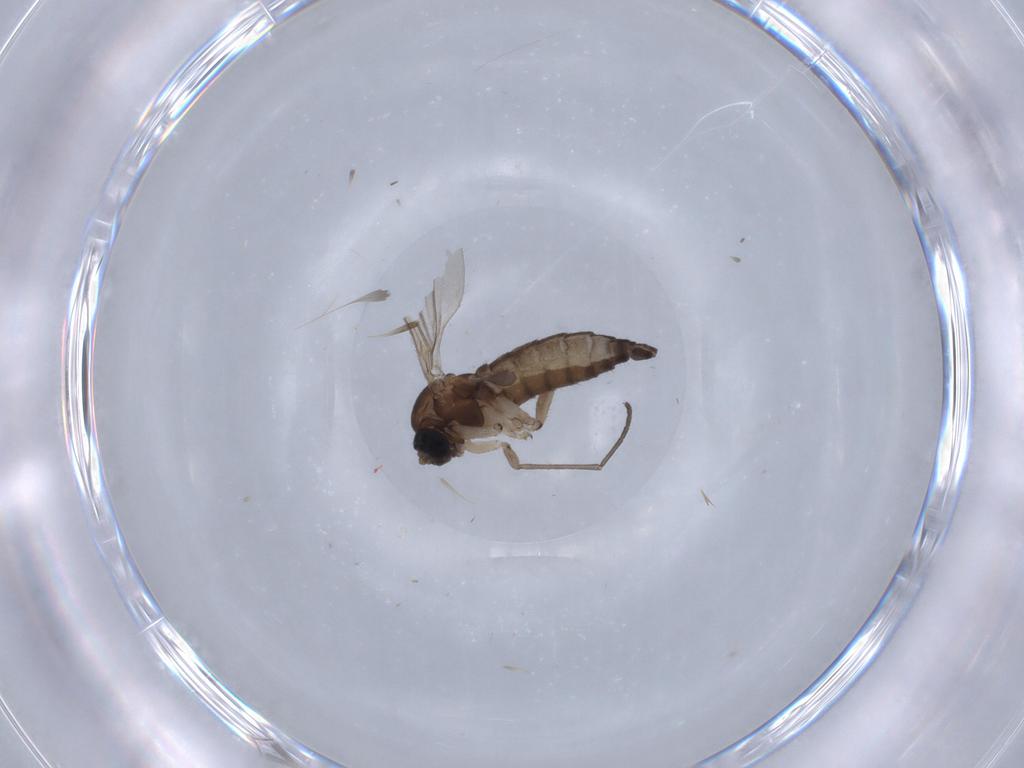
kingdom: Animalia
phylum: Arthropoda
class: Insecta
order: Diptera
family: Sciaridae
